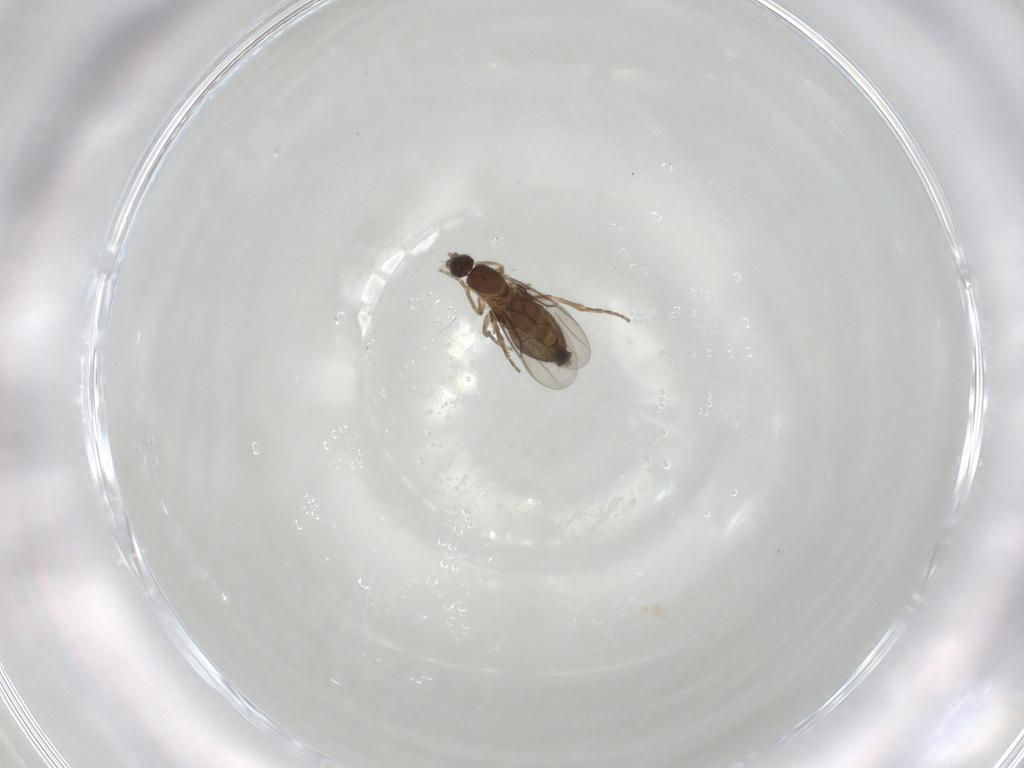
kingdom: Animalia
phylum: Arthropoda
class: Insecta
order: Diptera
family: Phoridae
